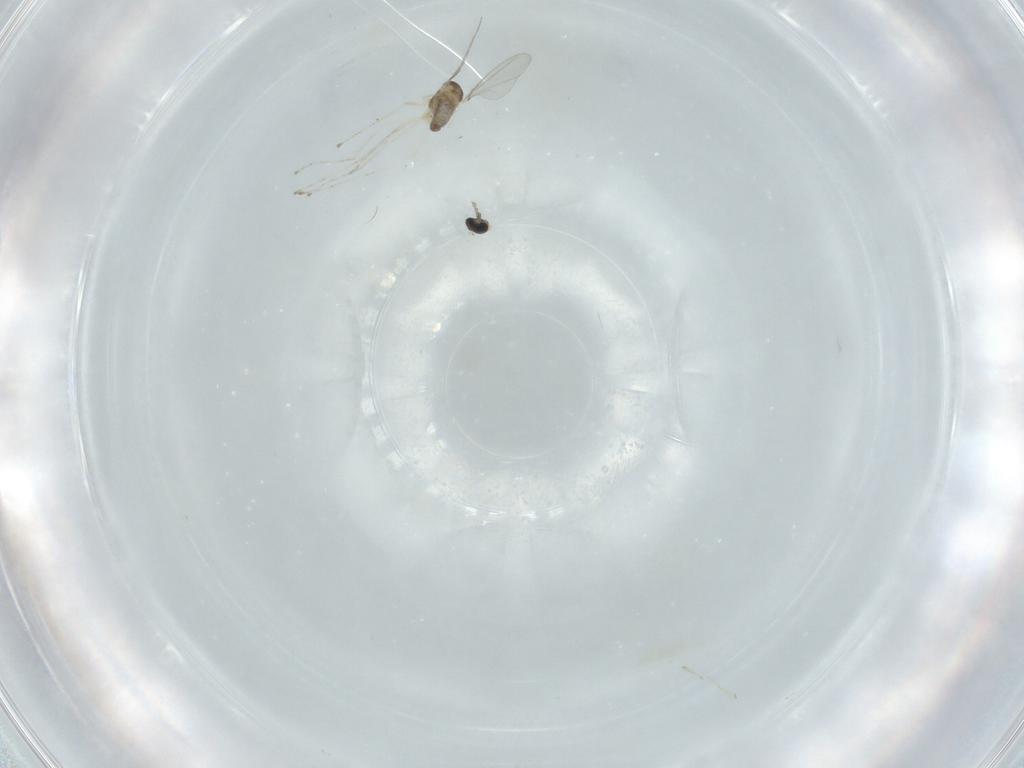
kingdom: Animalia
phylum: Arthropoda
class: Insecta
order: Diptera
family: Cecidomyiidae
